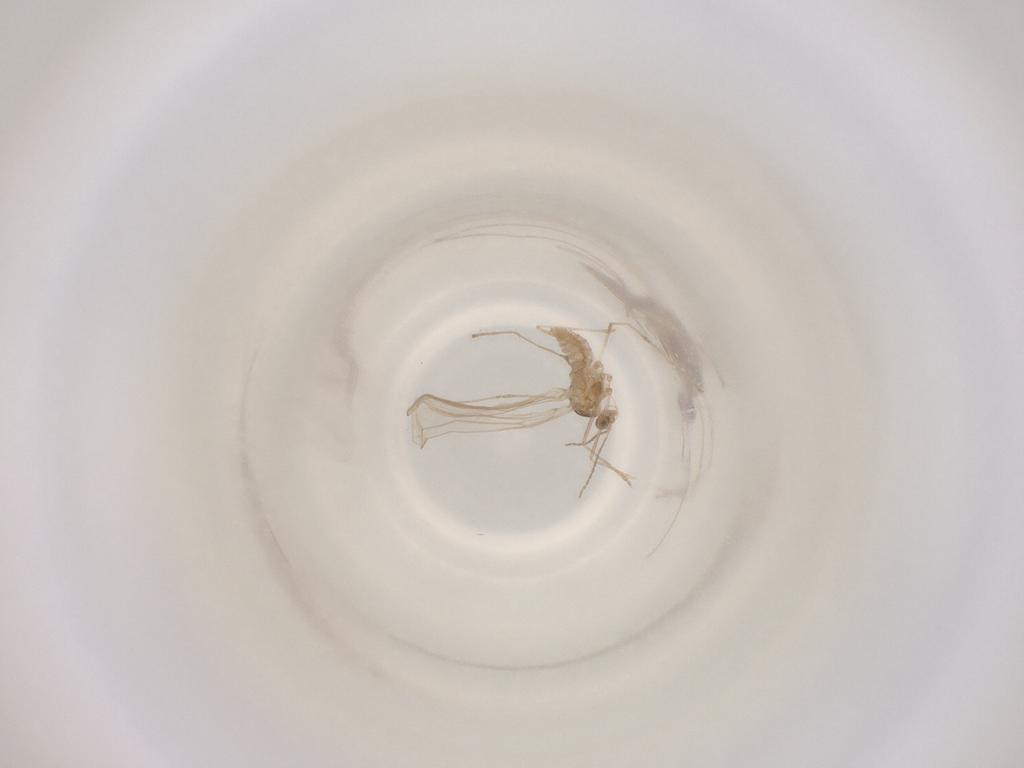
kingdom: Animalia
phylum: Arthropoda
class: Insecta
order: Diptera
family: Cecidomyiidae
